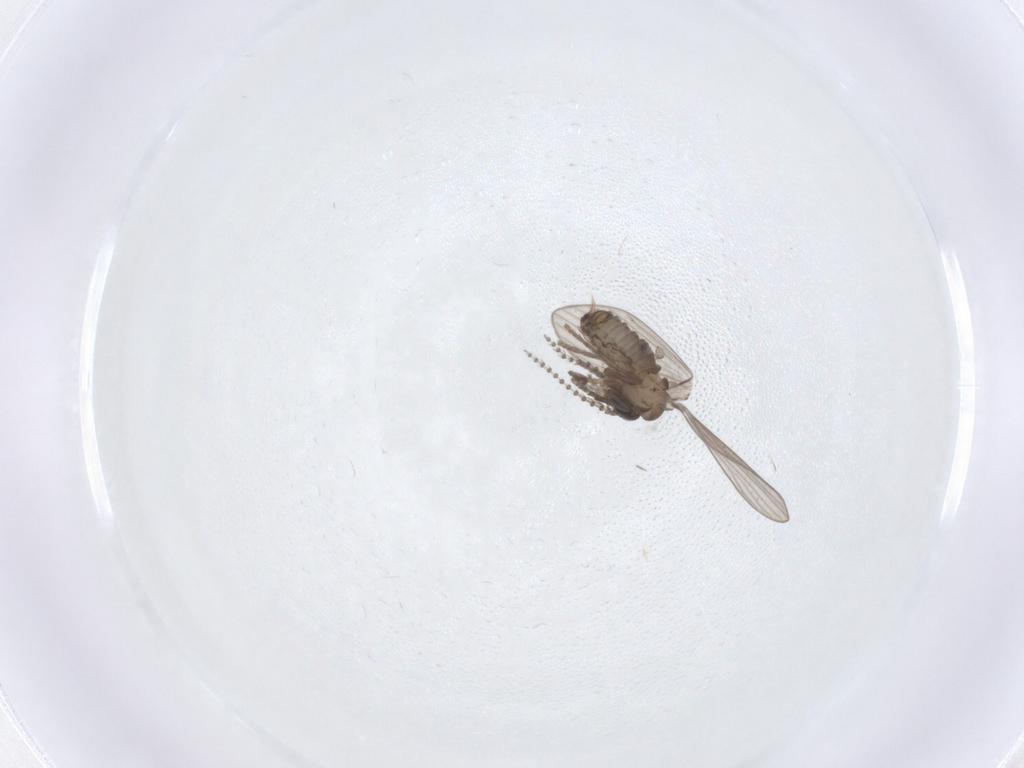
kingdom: Animalia
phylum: Arthropoda
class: Insecta
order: Diptera
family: Psychodidae
